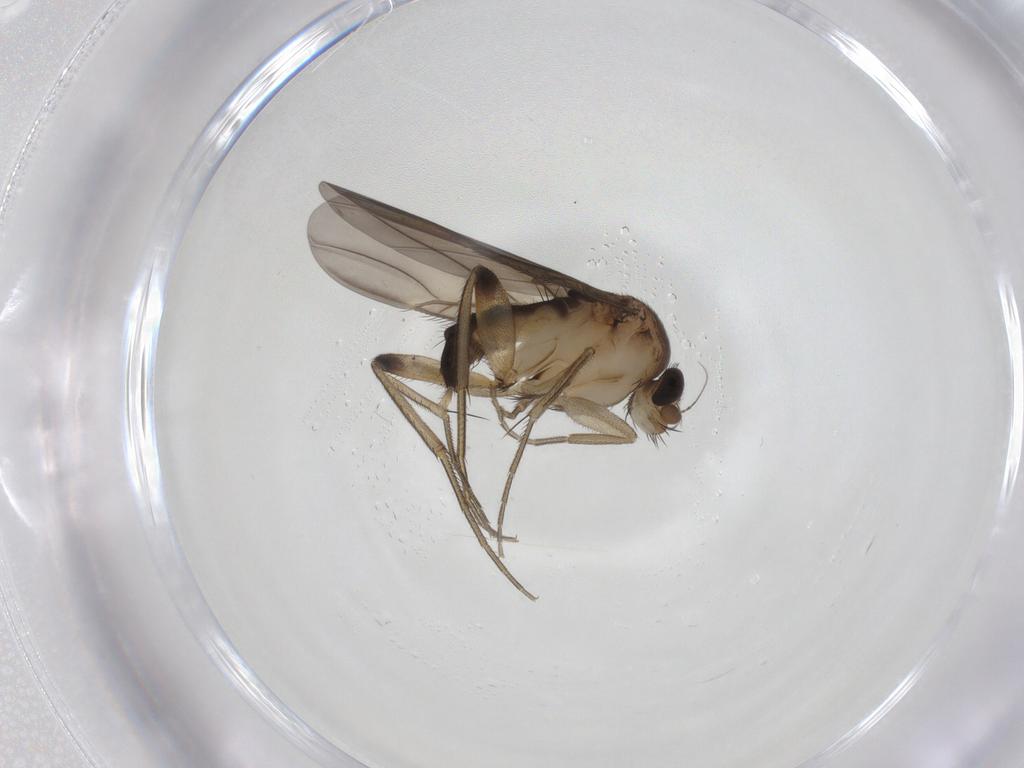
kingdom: Animalia
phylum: Arthropoda
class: Insecta
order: Diptera
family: Phoridae
